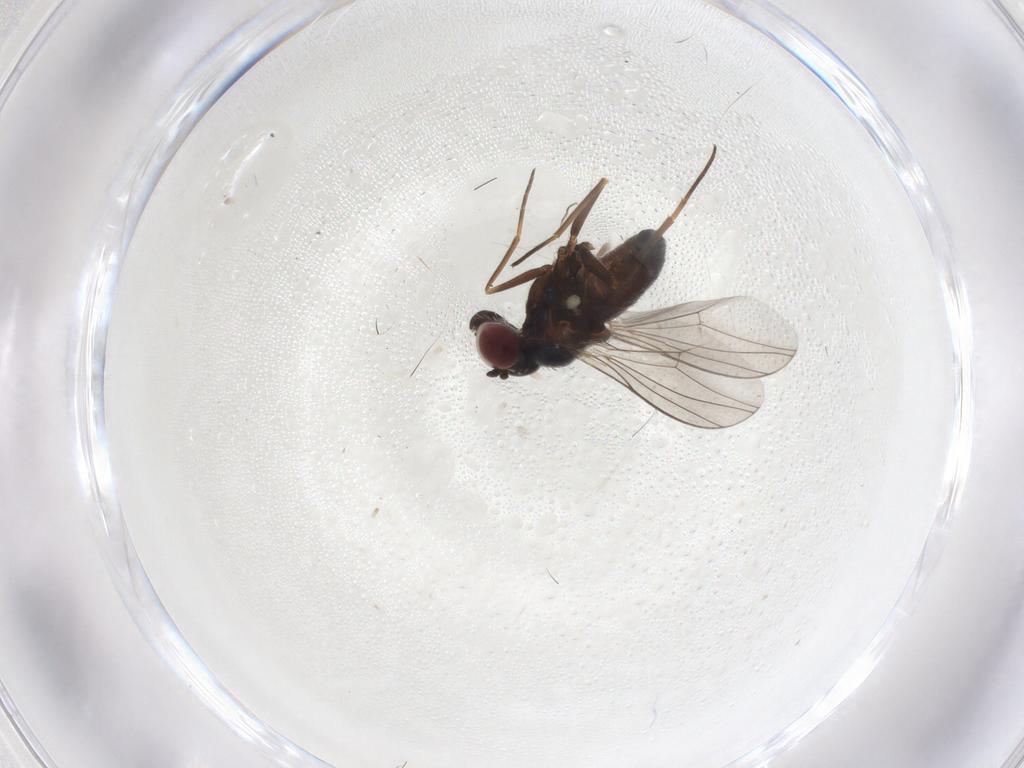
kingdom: Animalia
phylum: Arthropoda
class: Insecta
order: Diptera
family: Dolichopodidae
